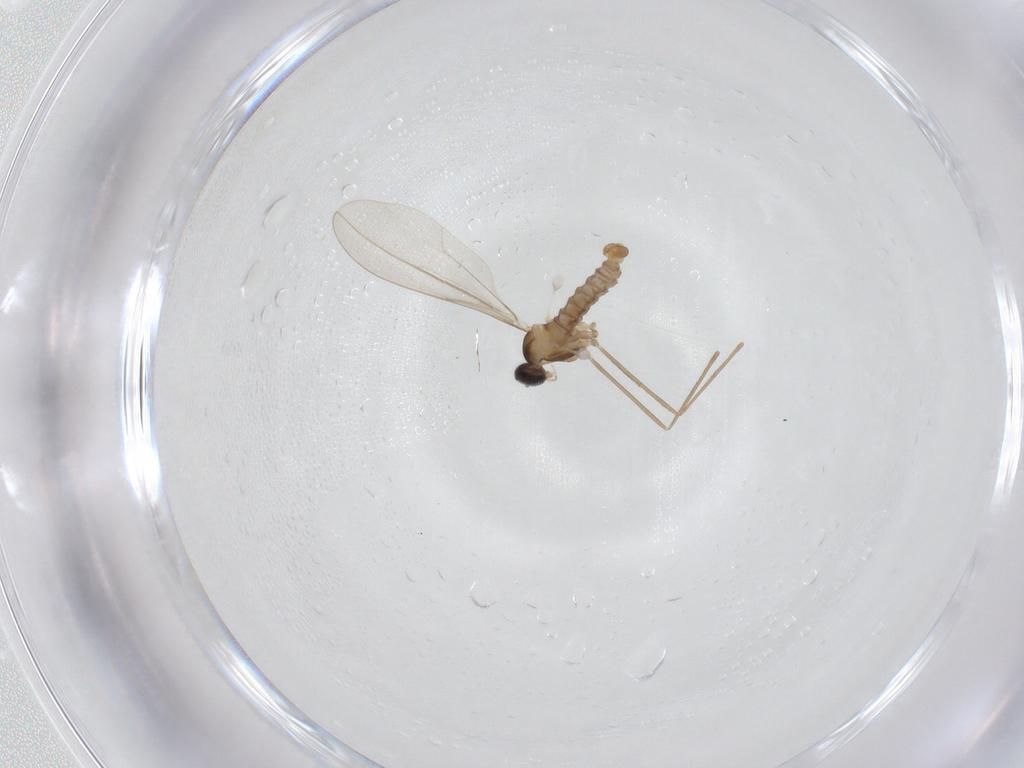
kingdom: Animalia
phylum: Arthropoda
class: Insecta
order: Diptera
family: Cecidomyiidae
